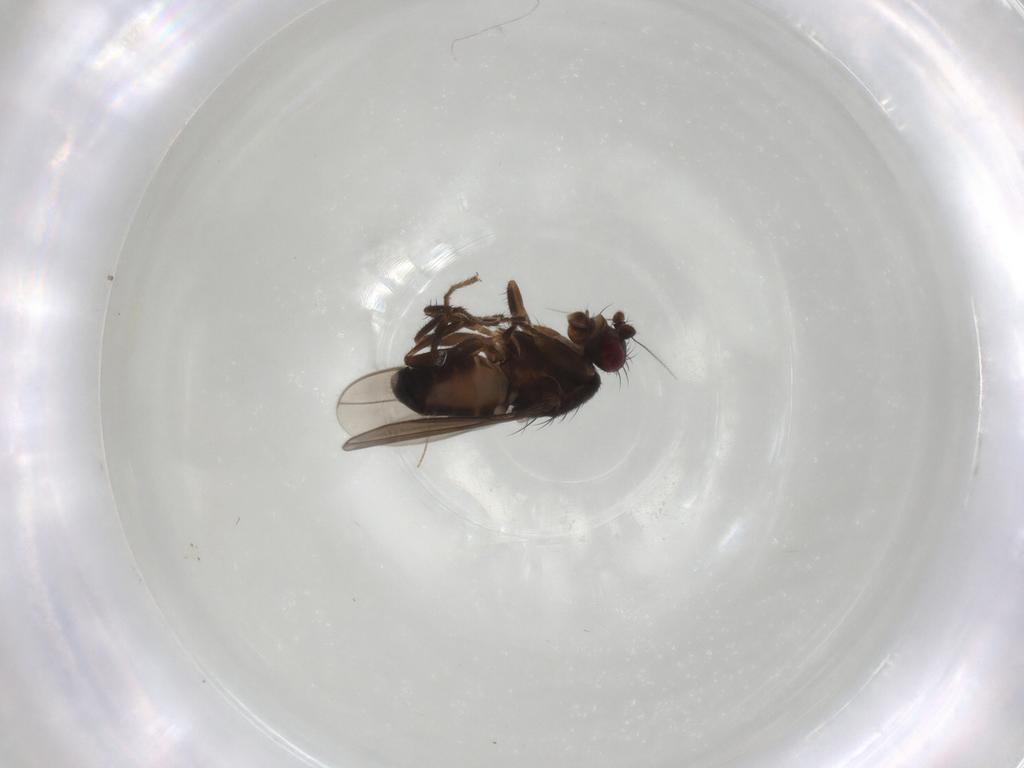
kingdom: Animalia
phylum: Arthropoda
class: Insecta
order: Diptera
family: Sphaeroceridae
